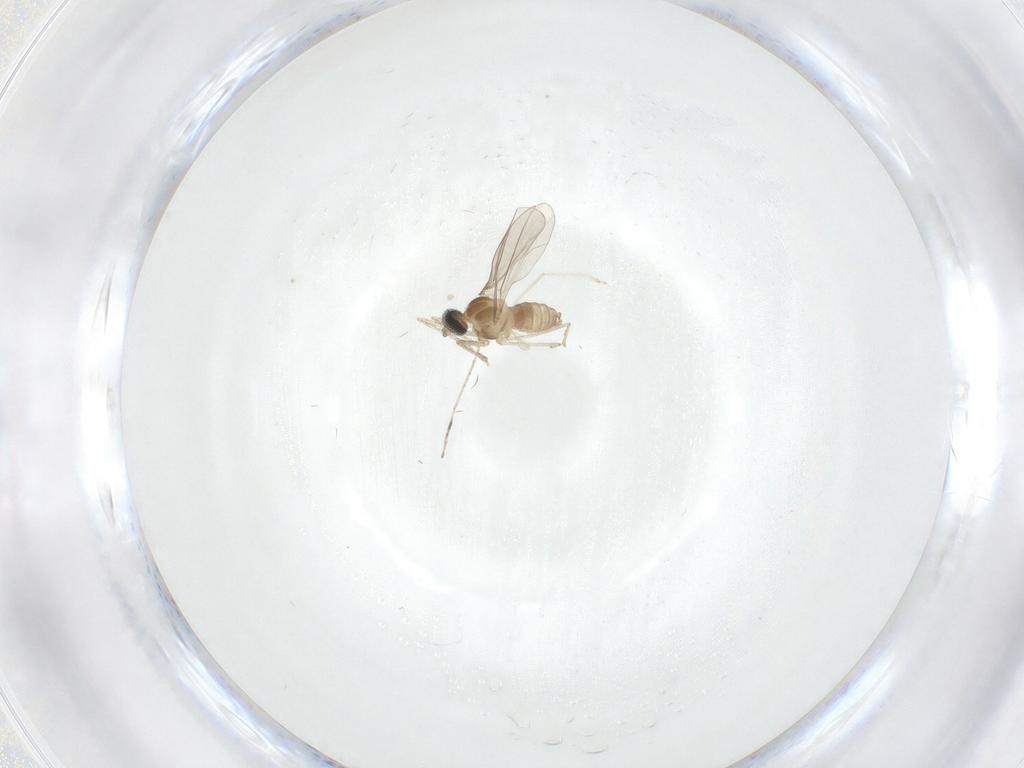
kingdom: Animalia
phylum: Arthropoda
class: Insecta
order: Diptera
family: Cecidomyiidae
